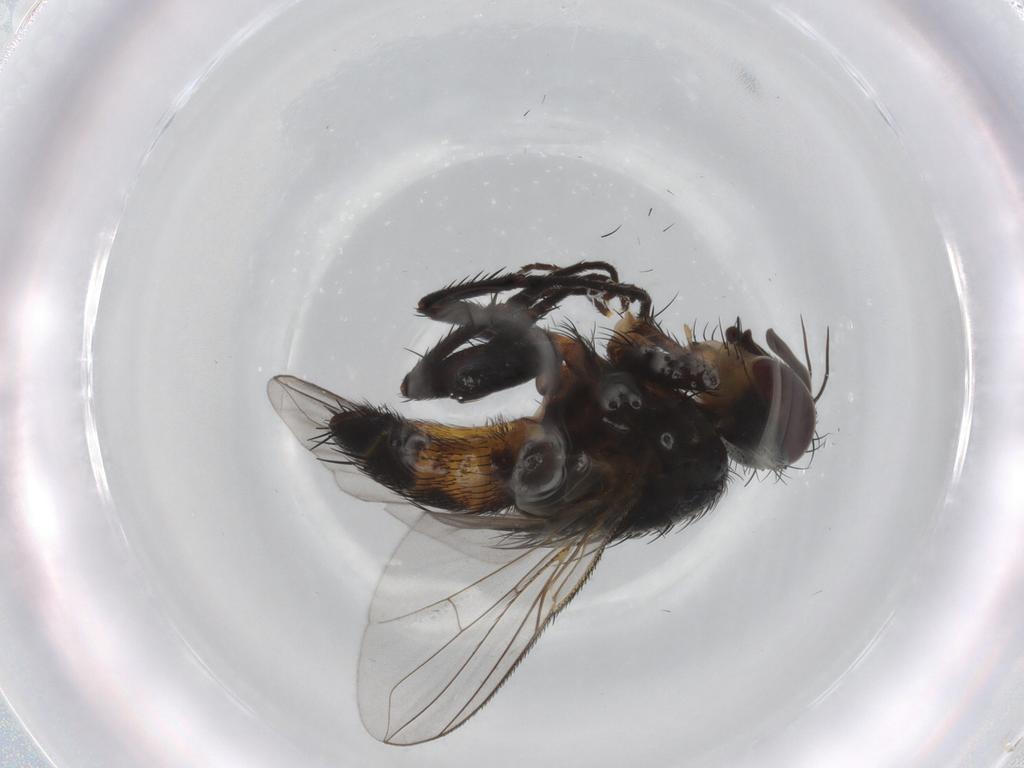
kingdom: Animalia
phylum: Arthropoda
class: Insecta
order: Diptera
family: Tachinidae
